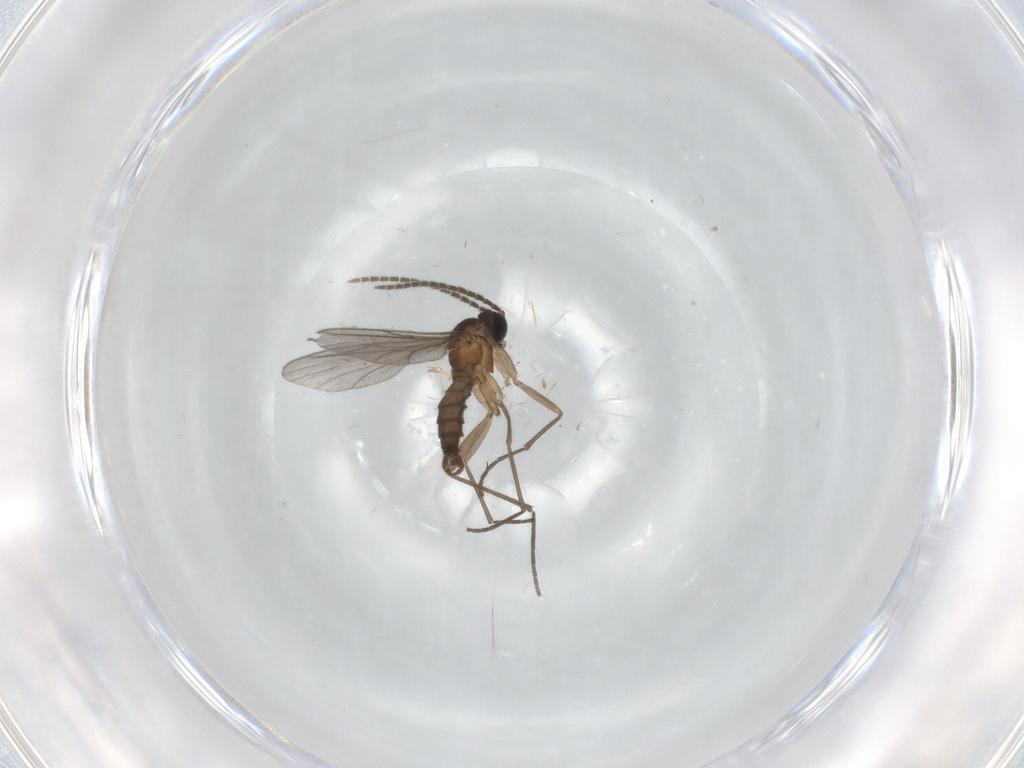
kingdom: Animalia
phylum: Arthropoda
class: Insecta
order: Diptera
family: Sciaridae
